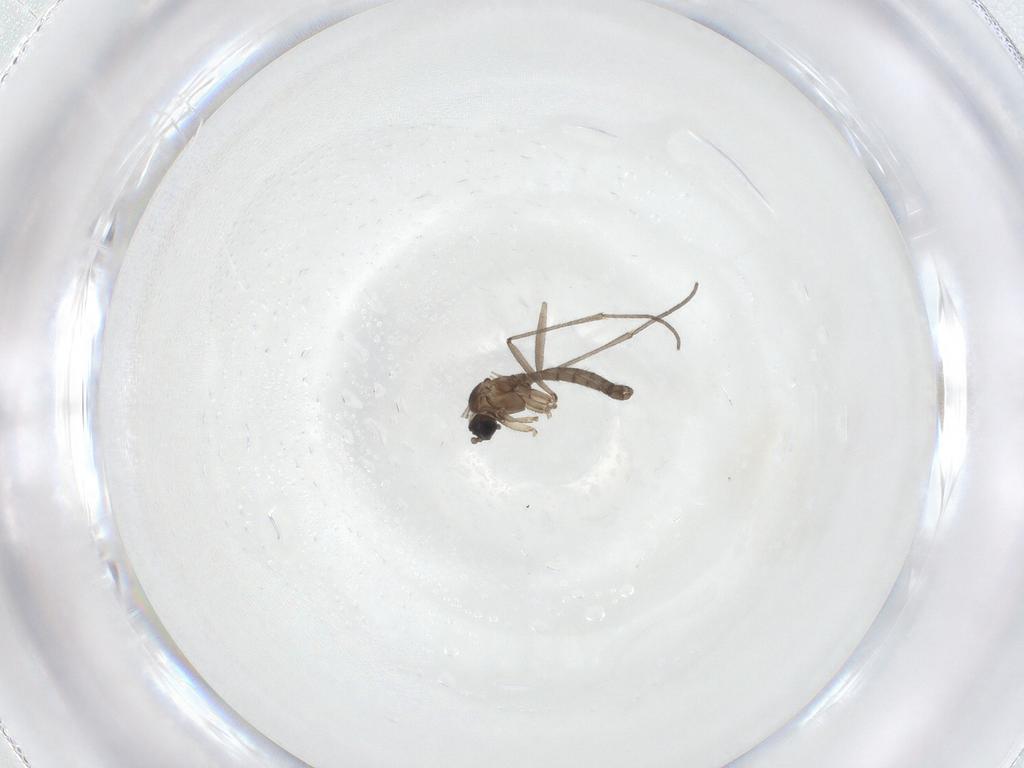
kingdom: Animalia
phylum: Arthropoda
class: Insecta
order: Diptera
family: Sciaridae
